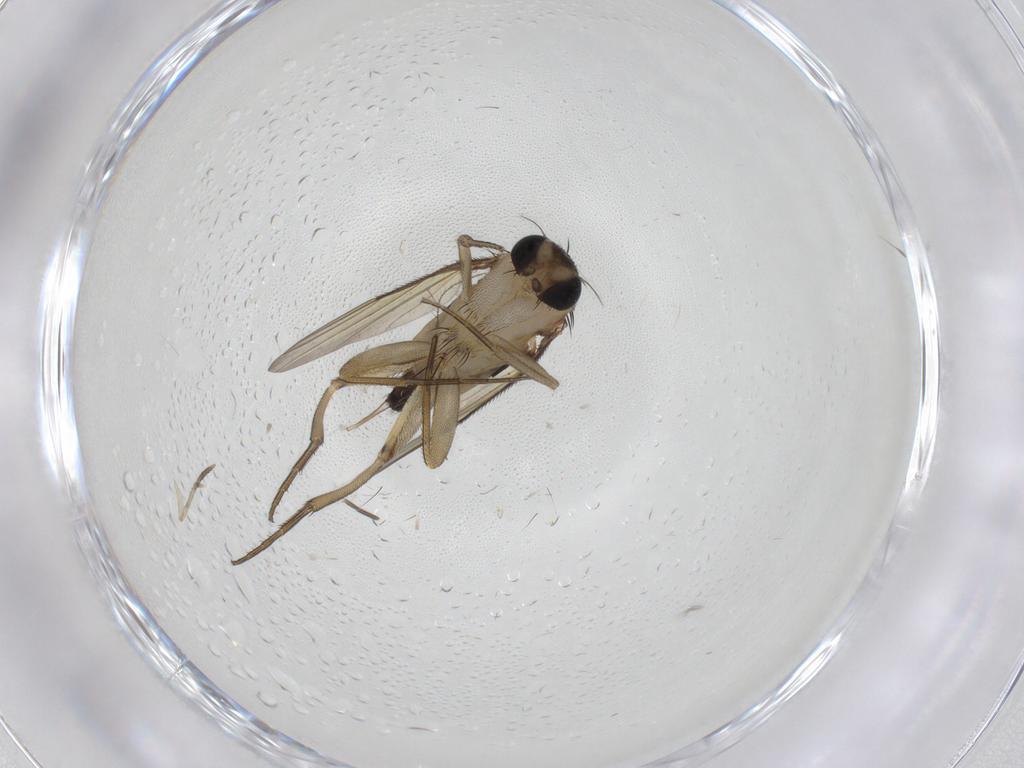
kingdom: Animalia
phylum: Arthropoda
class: Insecta
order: Diptera
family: Phoridae
